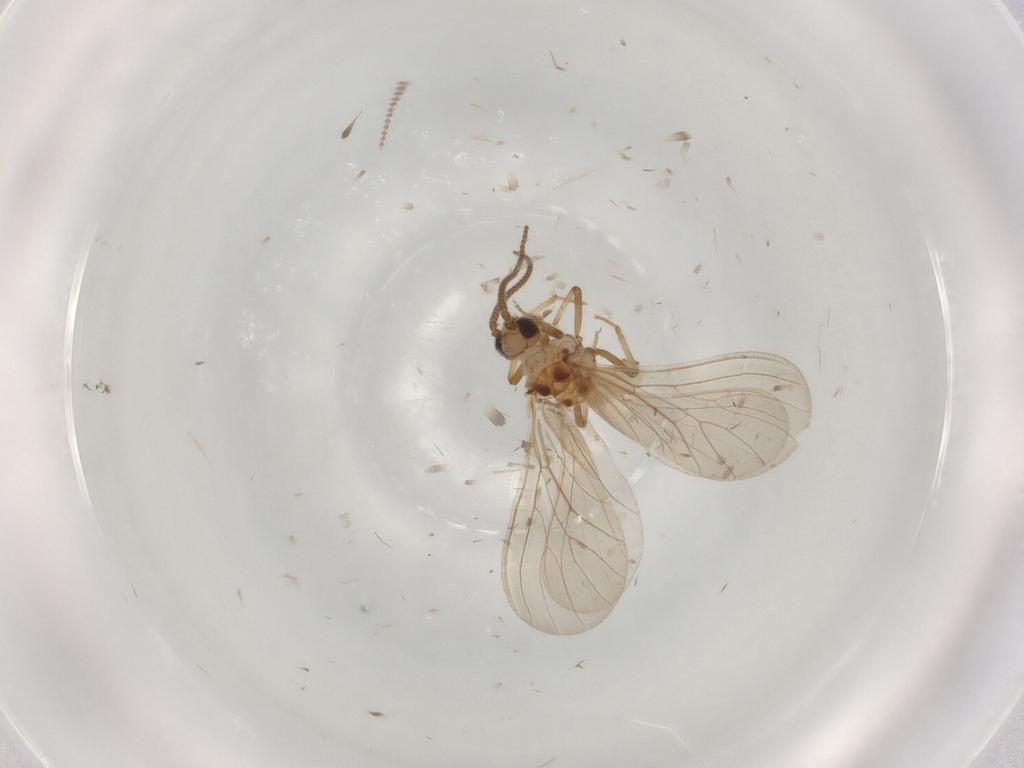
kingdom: Animalia
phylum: Arthropoda
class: Insecta
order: Neuroptera
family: Coniopterygidae
